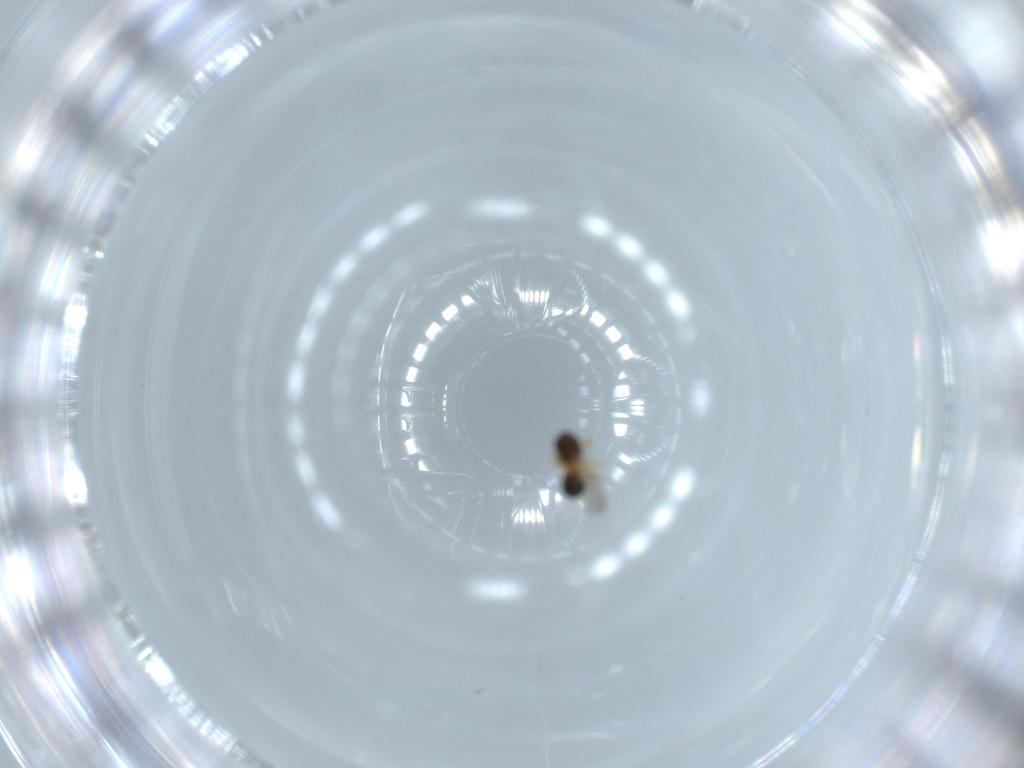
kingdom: Animalia
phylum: Arthropoda
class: Insecta
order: Hymenoptera
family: Scelionidae
